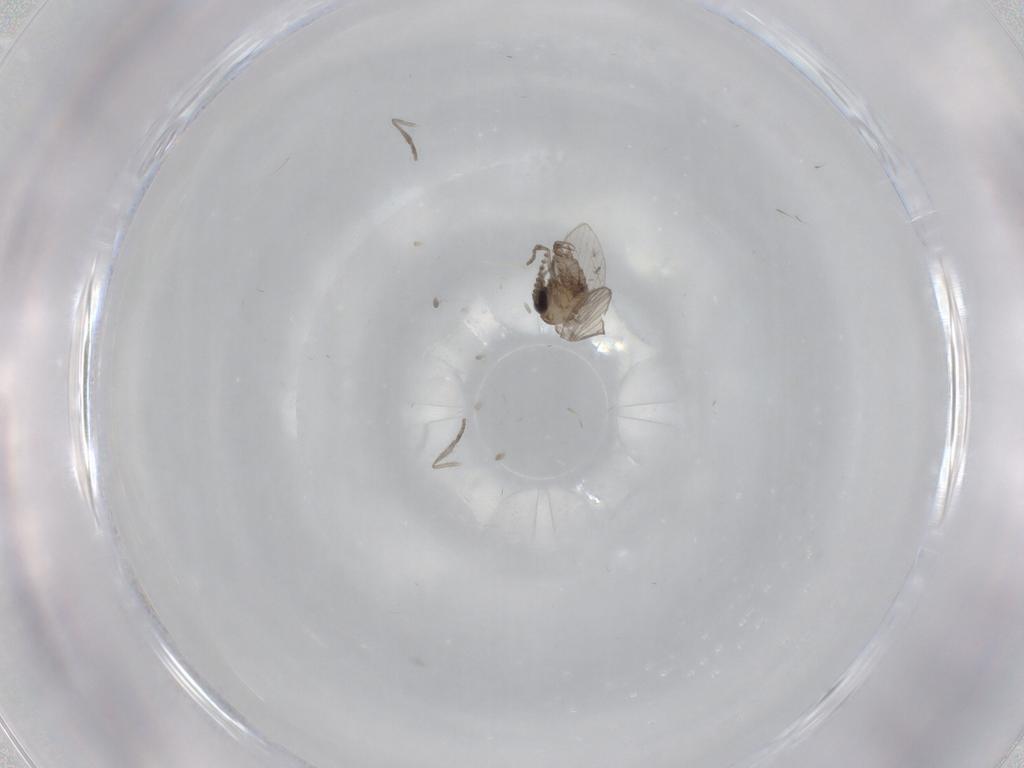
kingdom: Animalia
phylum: Arthropoda
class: Insecta
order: Diptera
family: Psychodidae
